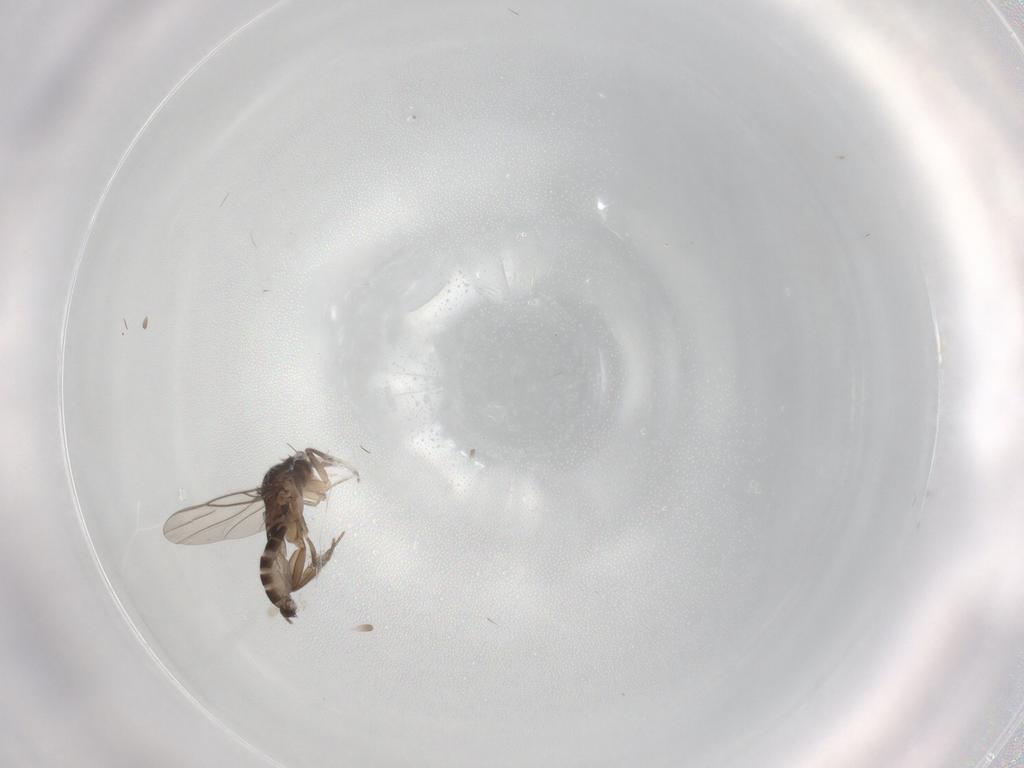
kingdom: Animalia
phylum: Arthropoda
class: Insecta
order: Diptera
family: Phoridae
